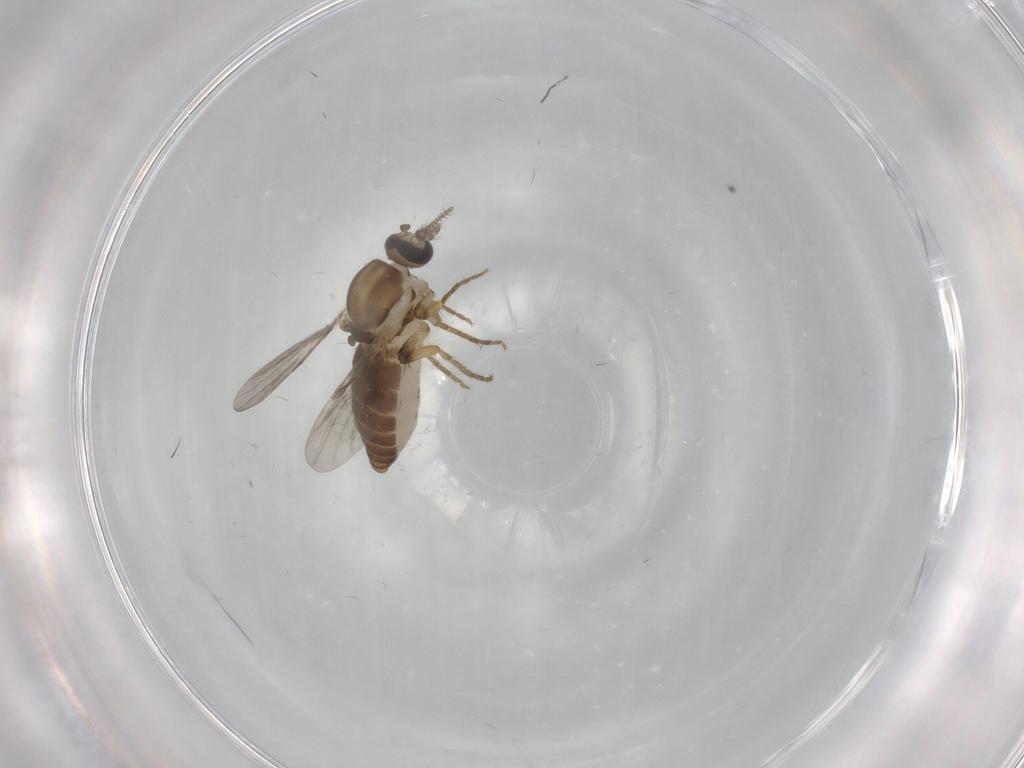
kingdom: Animalia
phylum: Arthropoda
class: Insecta
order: Diptera
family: Ceratopogonidae
